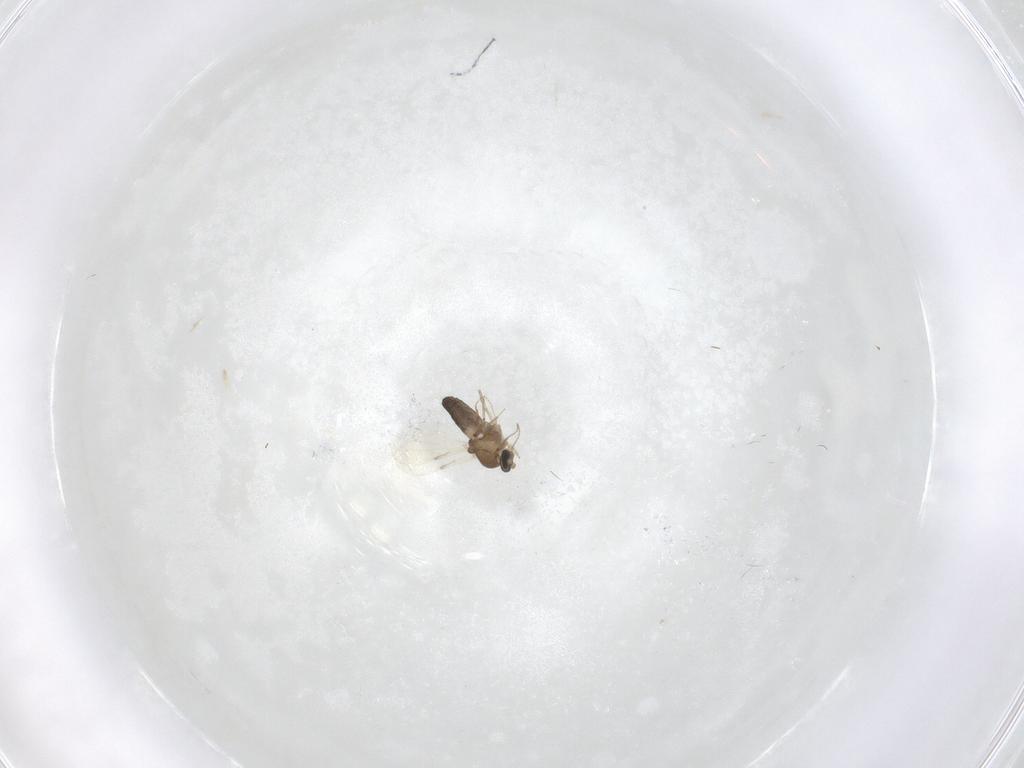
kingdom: Animalia
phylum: Arthropoda
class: Insecta
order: Diptera
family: Ceratopogonidae
